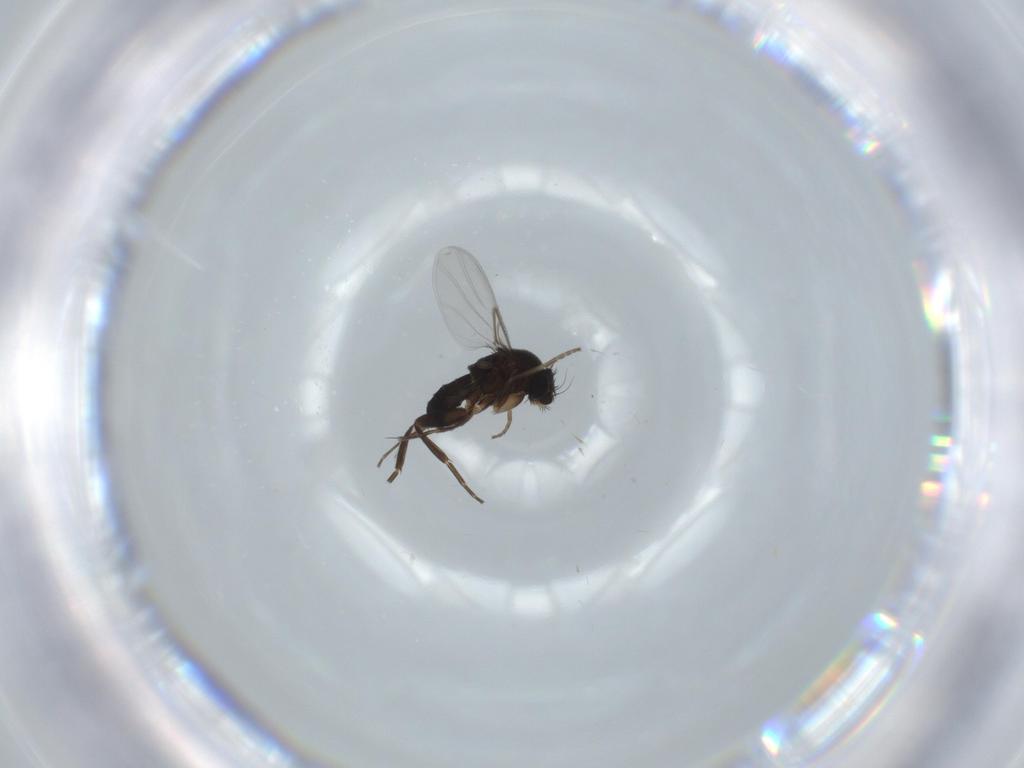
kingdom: Animalia
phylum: Arthropoda
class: Insecta
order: Diptera
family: Phoridae
